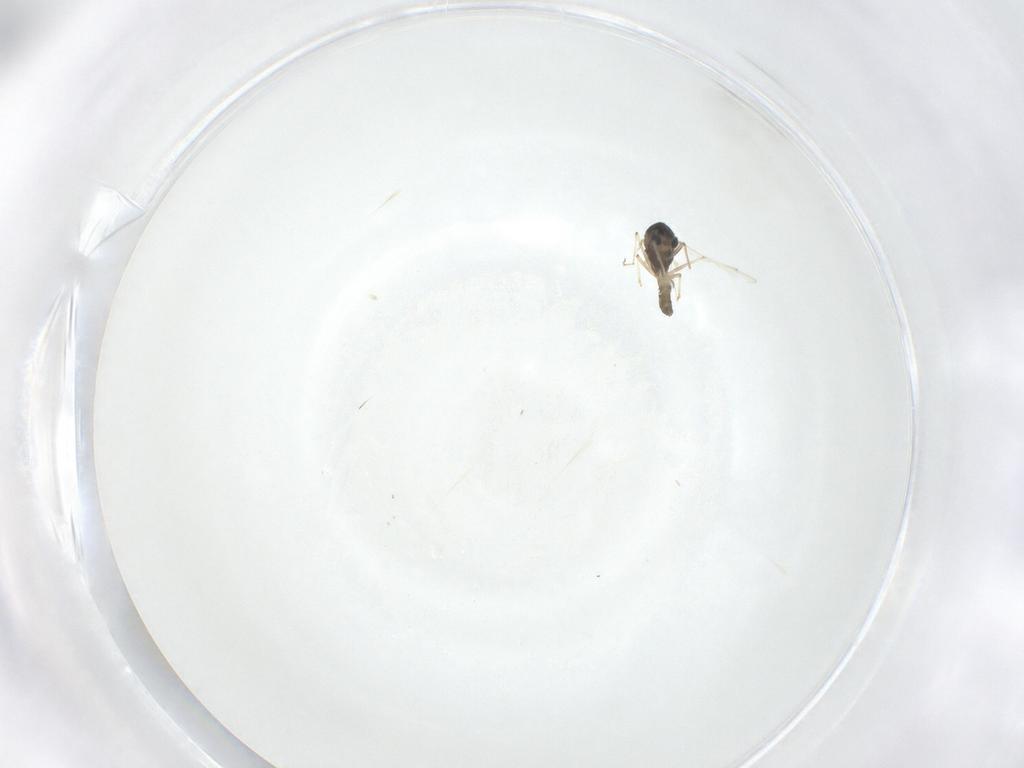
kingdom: Animalia
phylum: Arthropoda
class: Insecta
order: Diptera
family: Chironomidae
